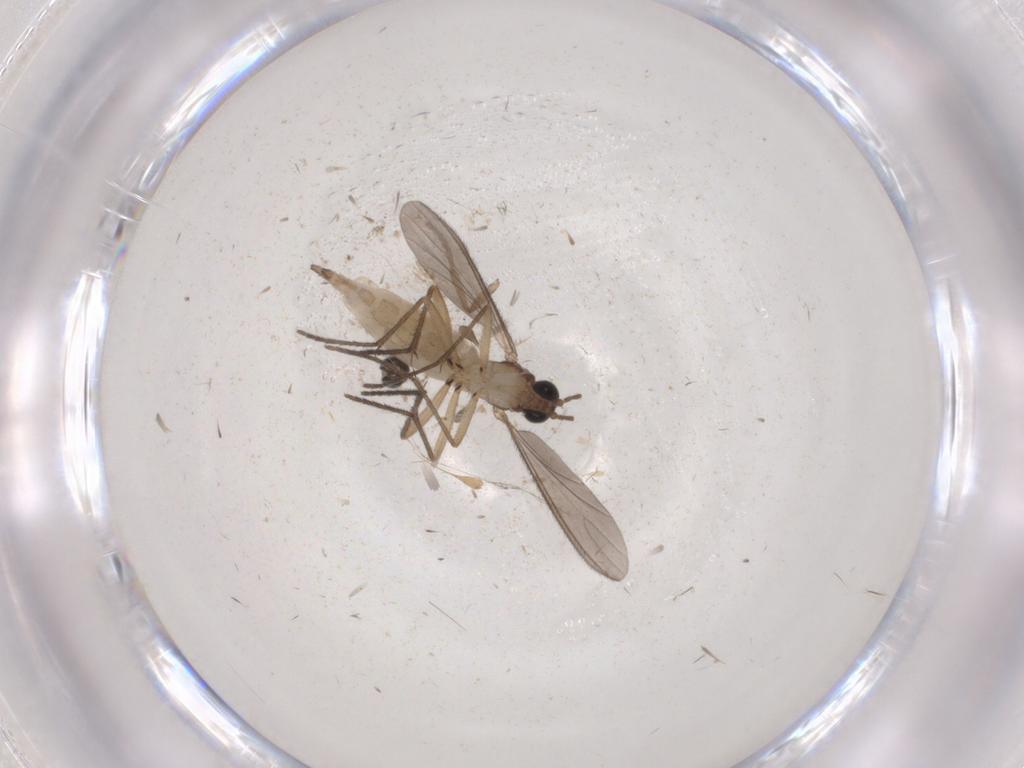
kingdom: Animalia
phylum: Arthropoda
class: Insecta
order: Diptera
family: Sciaridae
